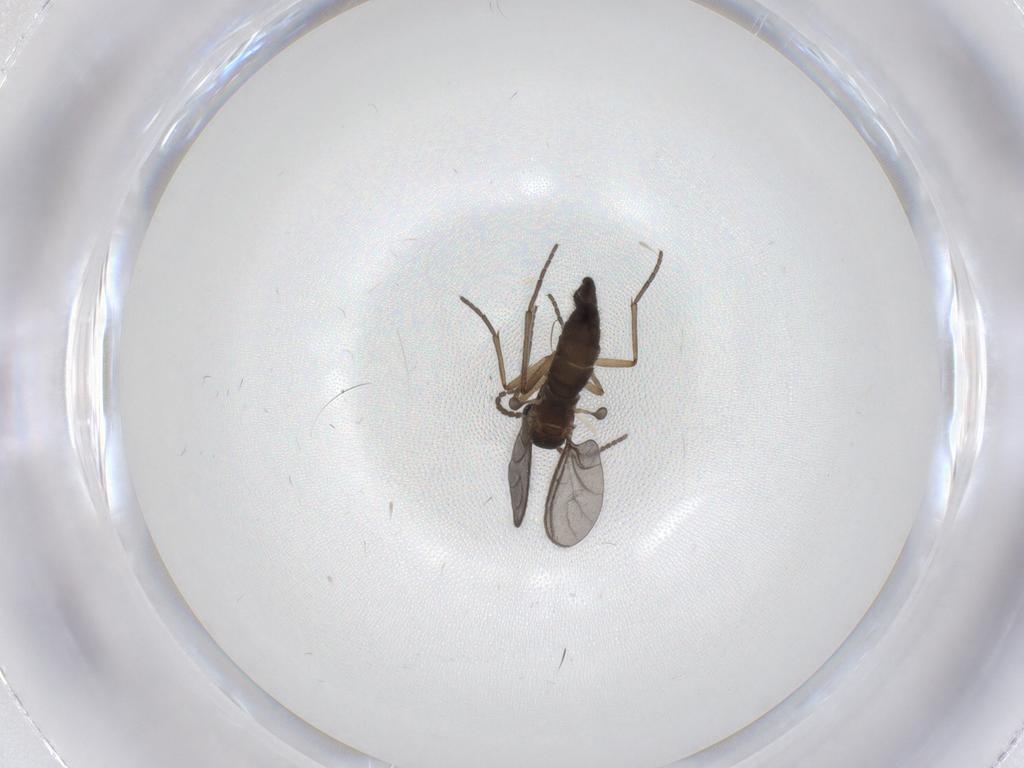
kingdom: Animalia
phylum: Arthropoda
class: Insecta
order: Diptera
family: Sciaridae
